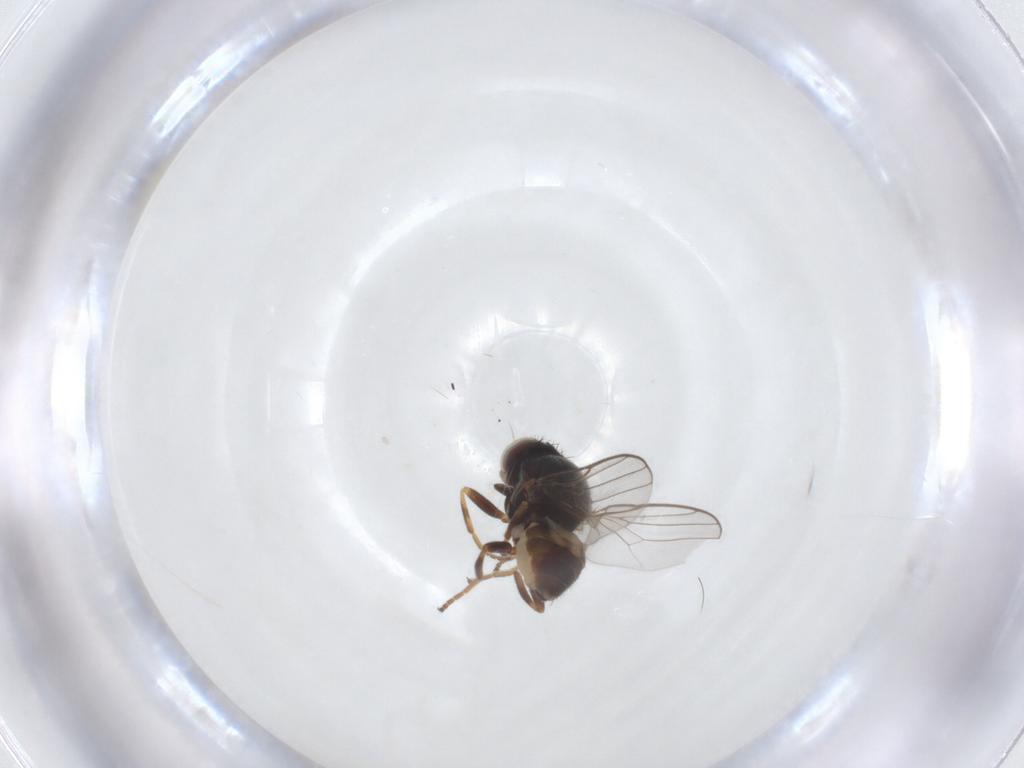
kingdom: Animalia
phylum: Arthropoda
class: Insecta
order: Diptera
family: Chloropidae
